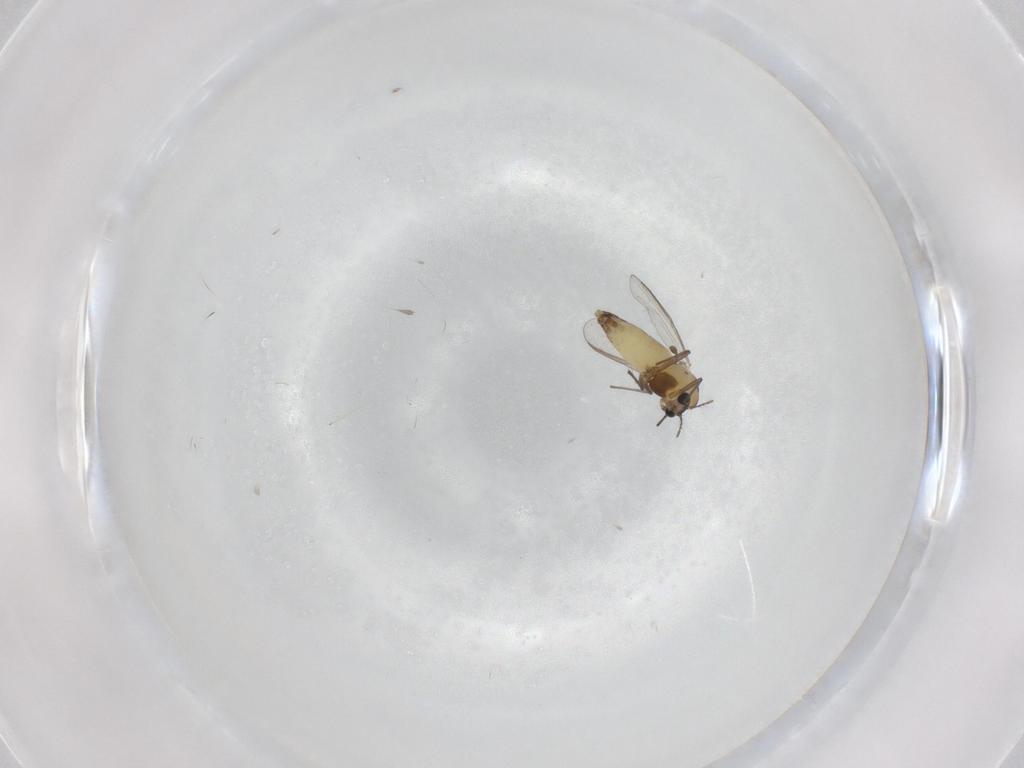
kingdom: Animalia
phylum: Arthropoda
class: Insecta
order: Diptera
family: Chironomidae
